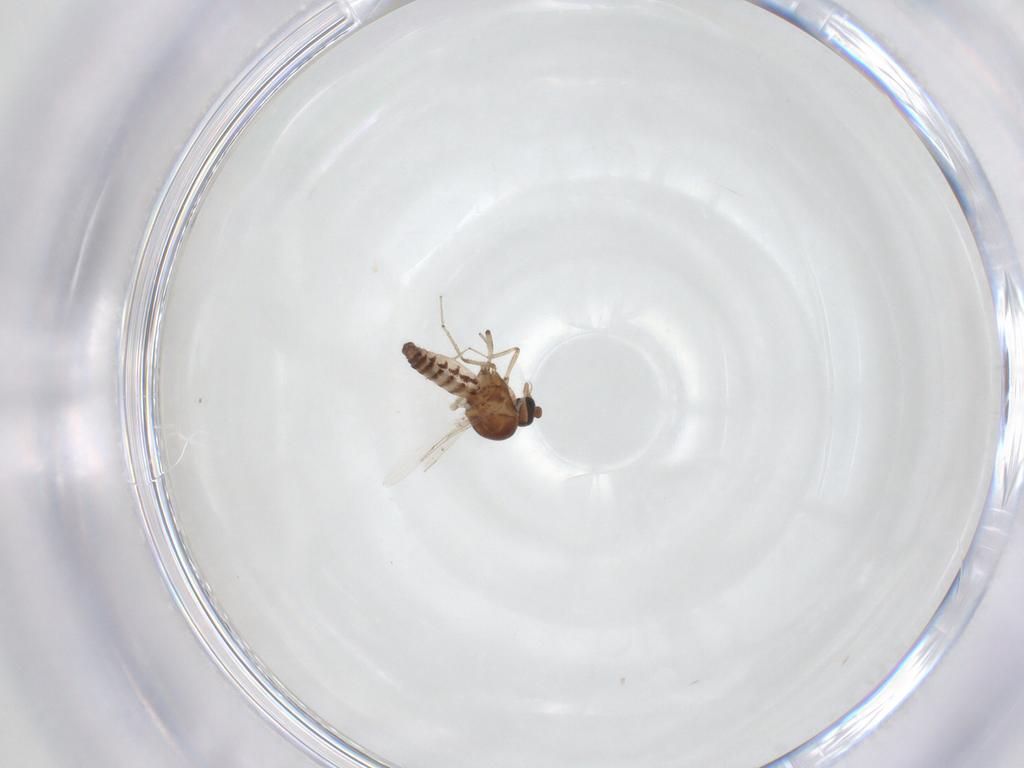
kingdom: Animalia
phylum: Arthropoda
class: Insecta
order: Diptera
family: Ceratopogonidae
